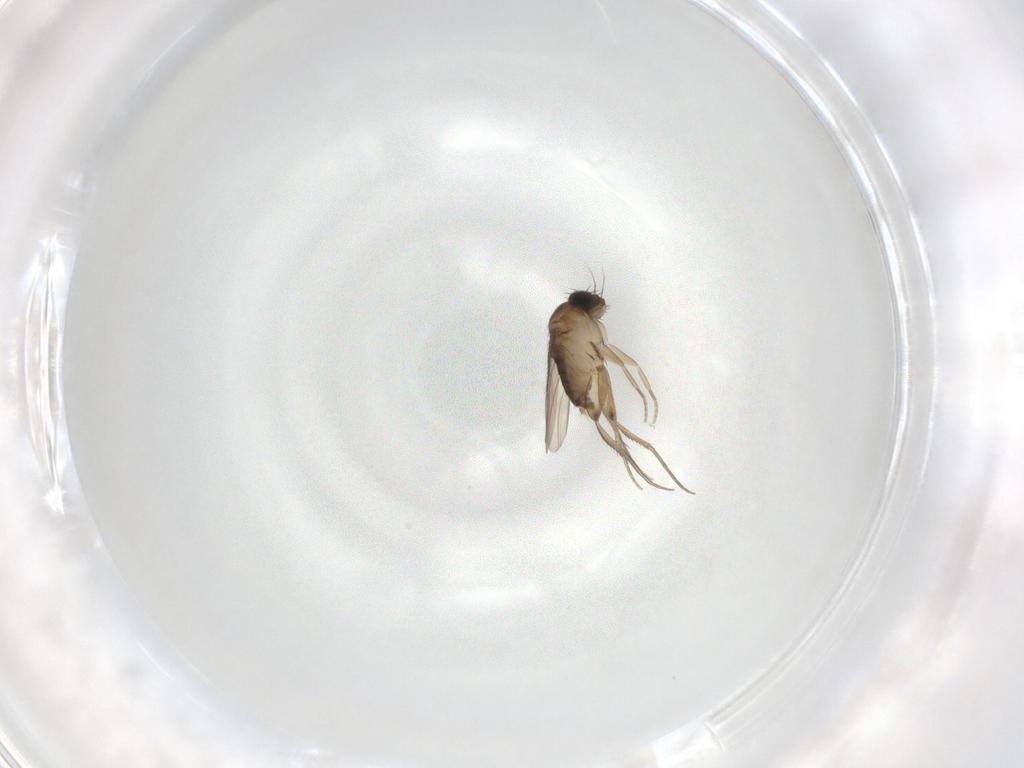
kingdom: Animalia
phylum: Arthropoda
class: Insecta
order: Diptera
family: Phoridae
